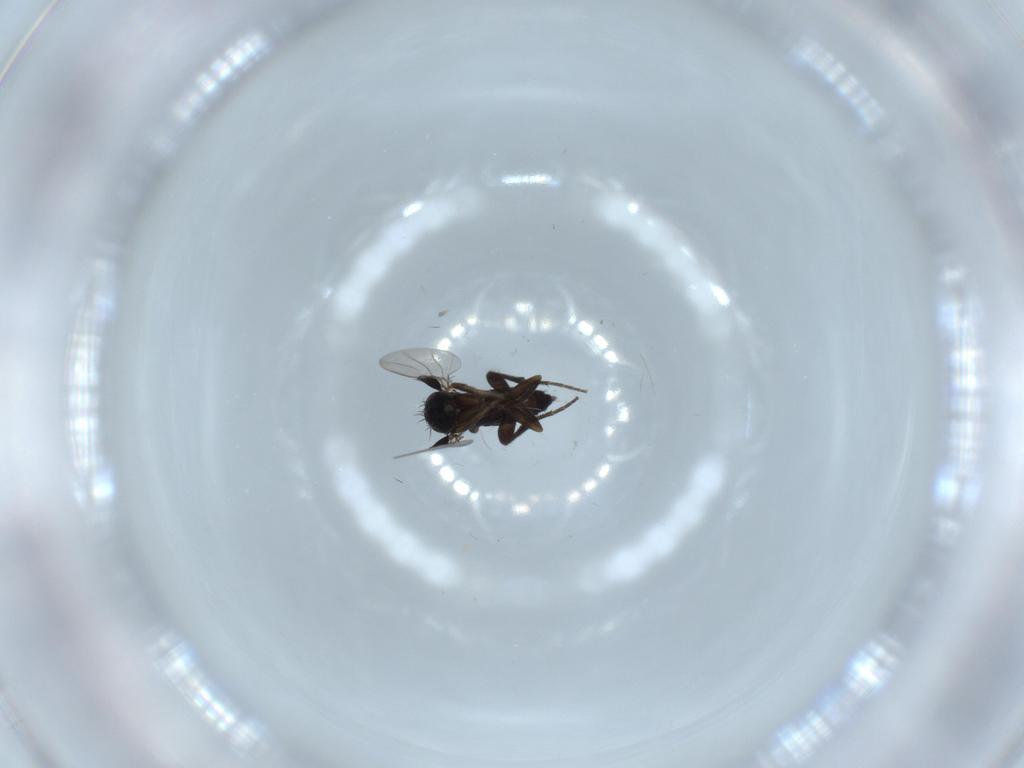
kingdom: Animalia
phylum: Arthropoda
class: Insecta
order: Diptera
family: Phoridae
